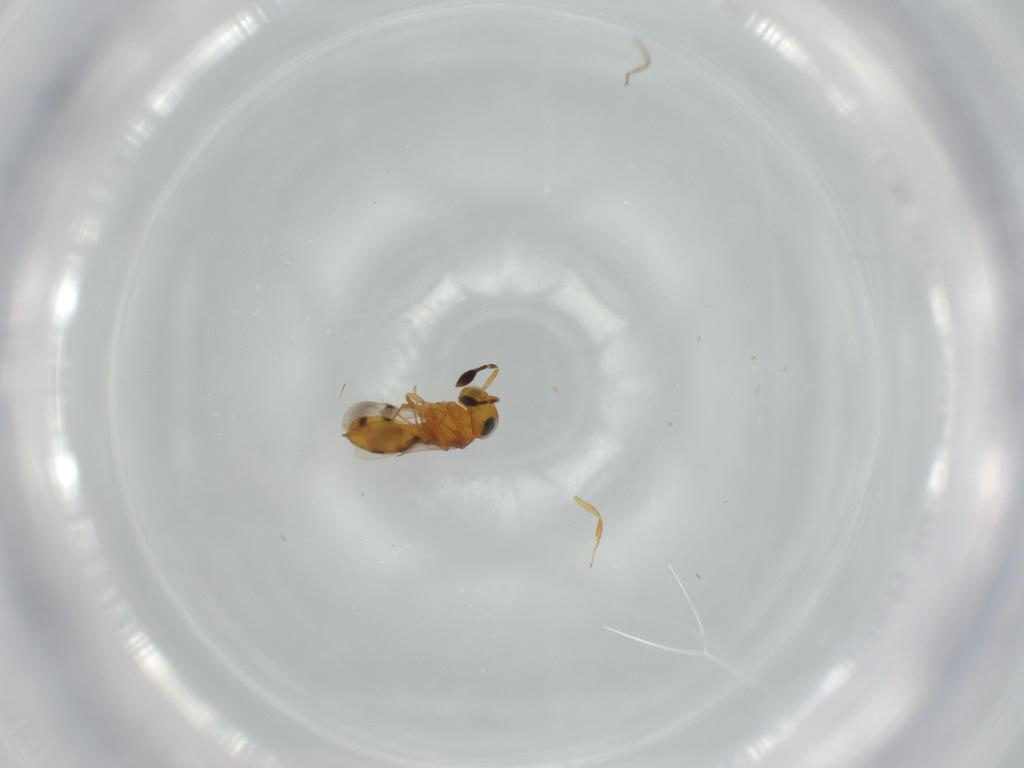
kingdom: Animalia
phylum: Arthropoda
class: Insecta
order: Hymenoptera
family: Scelionidae
